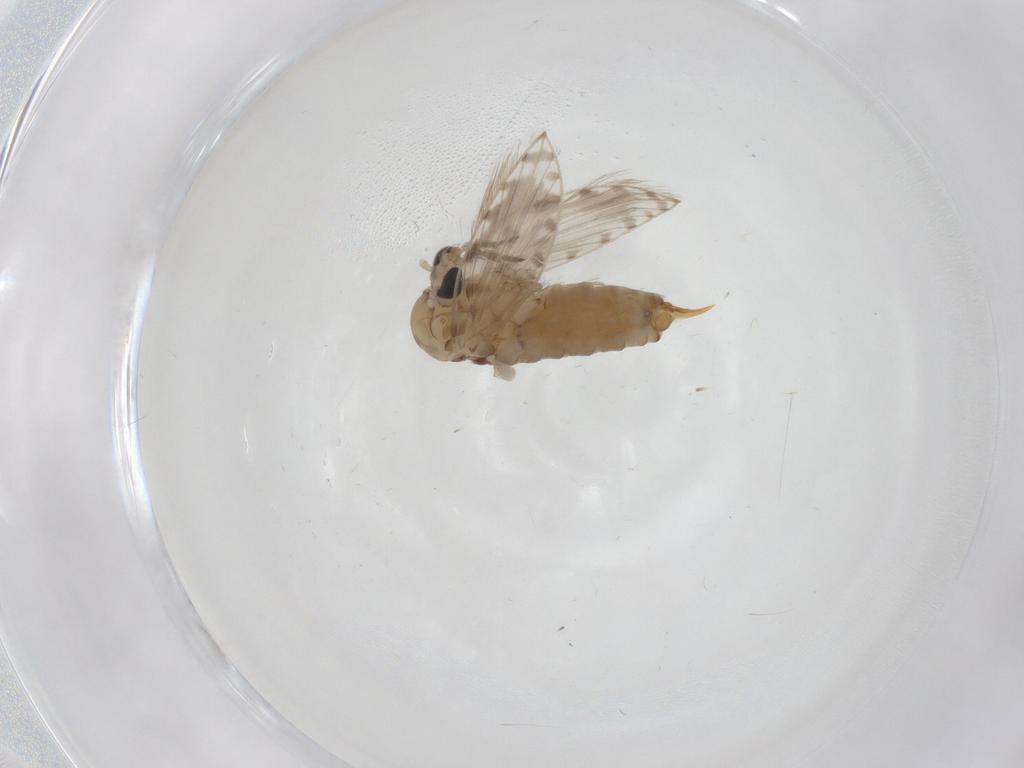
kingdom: Animalia
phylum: Arthropoda
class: Insecta
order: Diptera
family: Psychodidae
